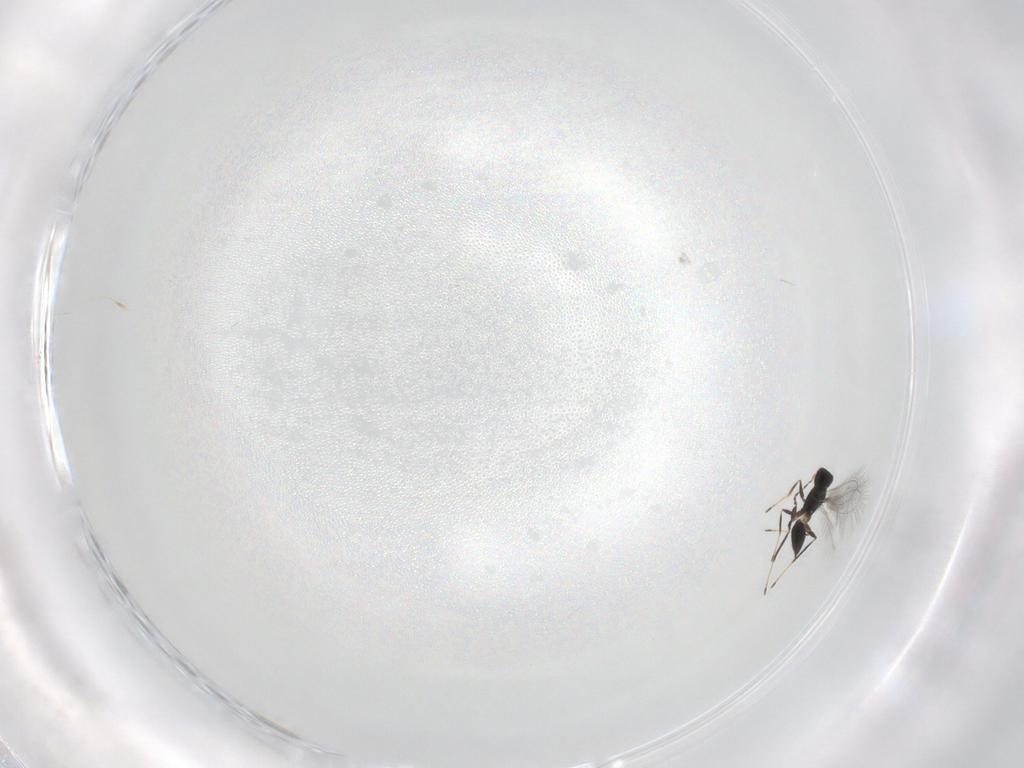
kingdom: Animalia
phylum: Arthropoda
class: Insecta
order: Hymenoptera
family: Mymaridae
